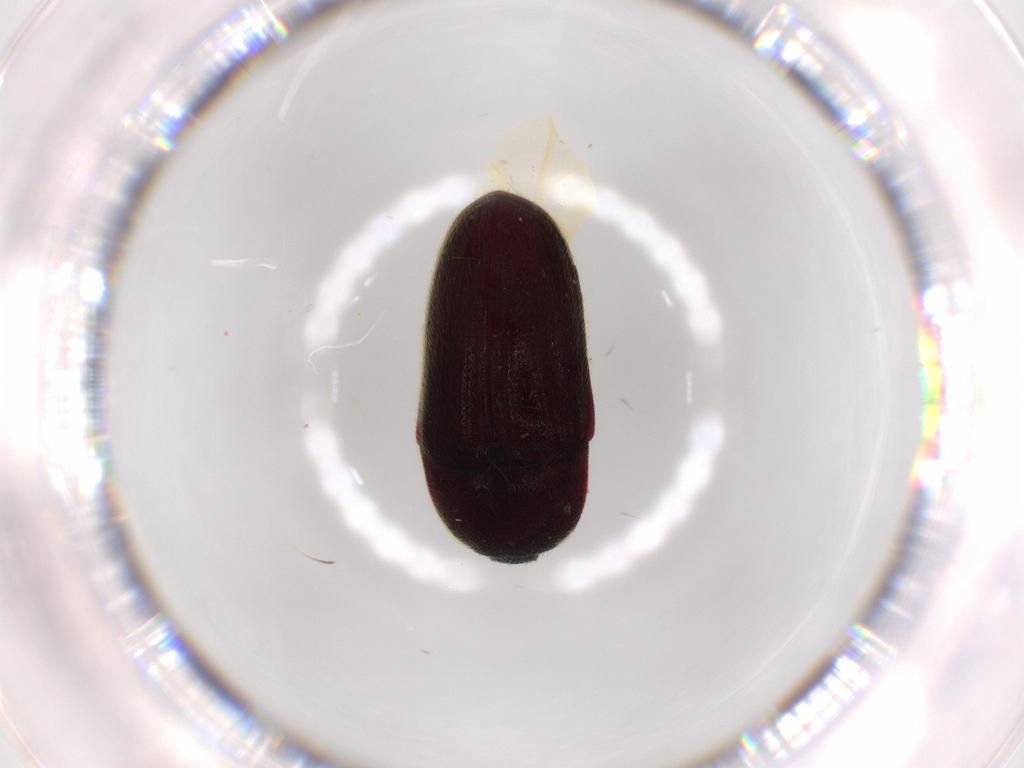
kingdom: Animalia
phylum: Arthropoda
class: Insecta
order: Coleoptera
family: Throscidae
